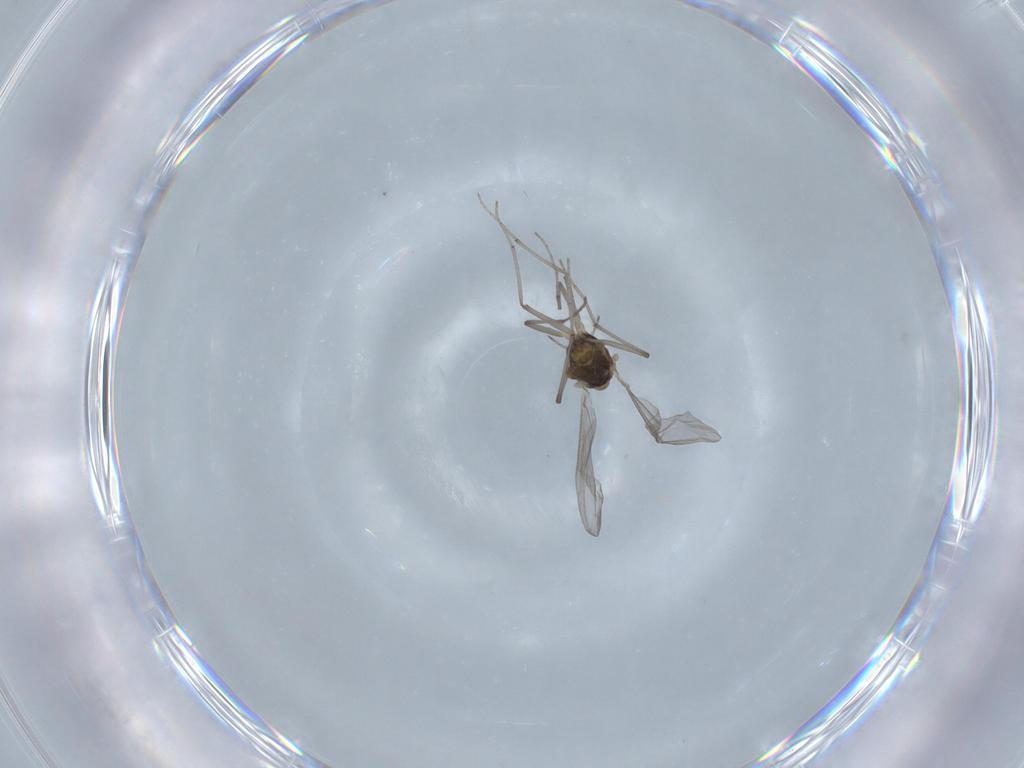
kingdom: Animalia
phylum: Arthropoda
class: Insecta
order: Diptera
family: Chironomidae
